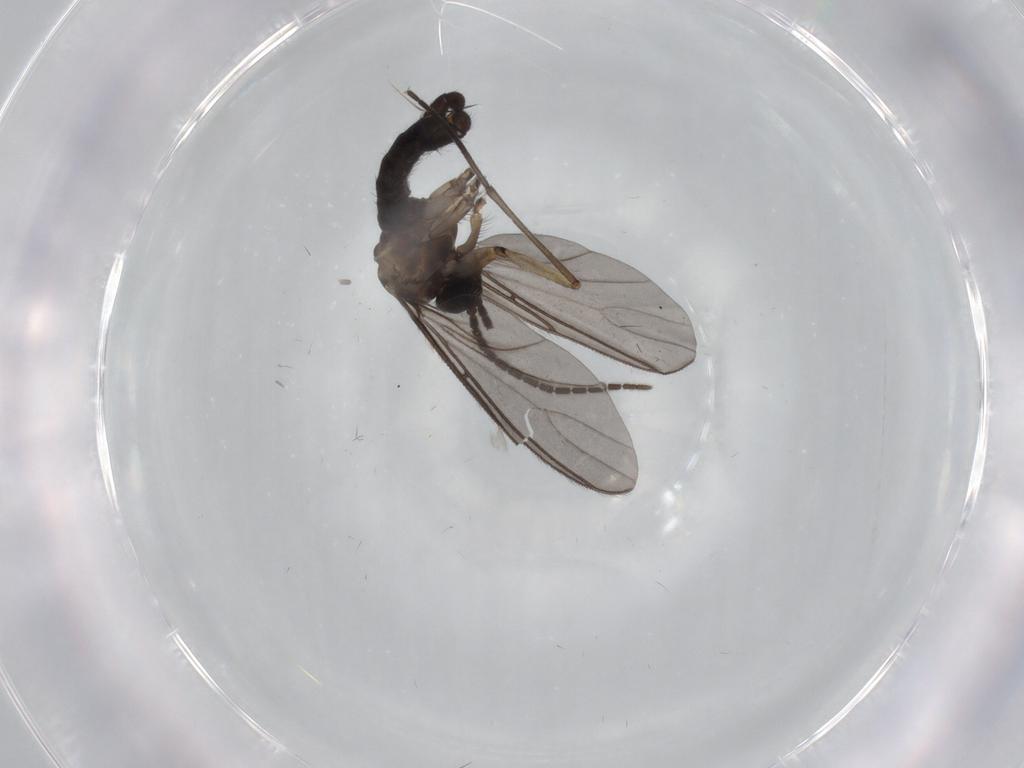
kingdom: Animalia
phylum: Arthropoda
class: Insecta
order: Diptera
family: Sciaridae
